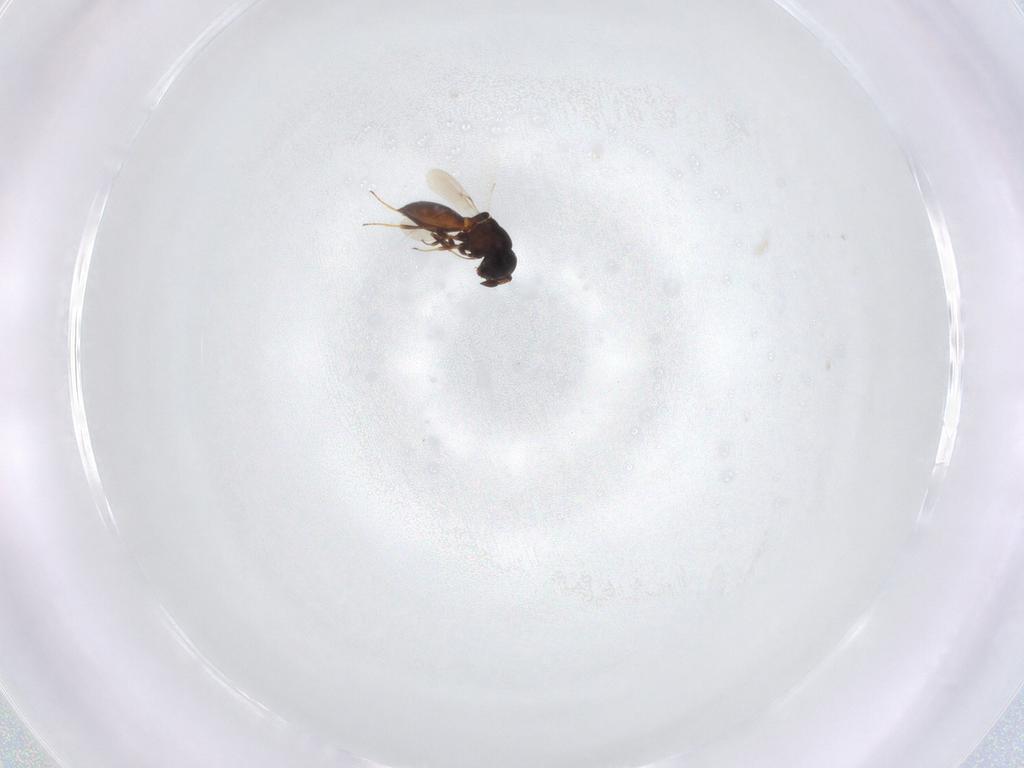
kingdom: Animalia
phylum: Arthropoda
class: Insecta
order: Hymenoptera
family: Scelionidae
